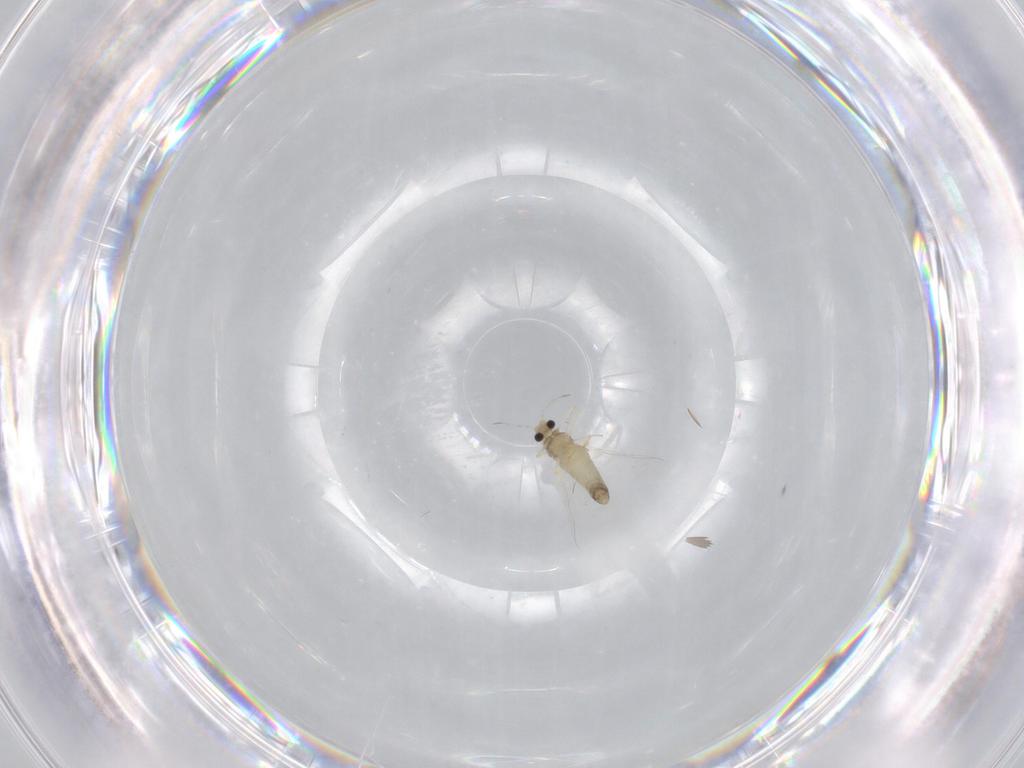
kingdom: Animalia
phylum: Arthropoda
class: Insecta
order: Diptera
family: Chironomidae
